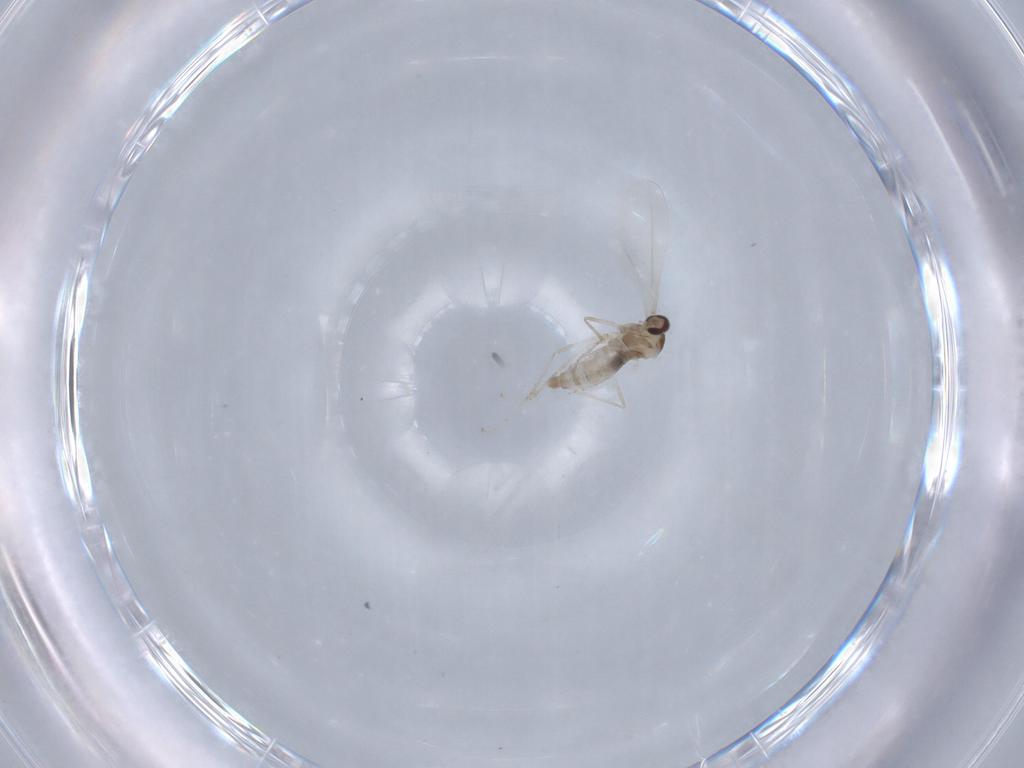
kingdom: Animalia
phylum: Arthropoda
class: Insecta
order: Diptera
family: Cecidomyiidae
